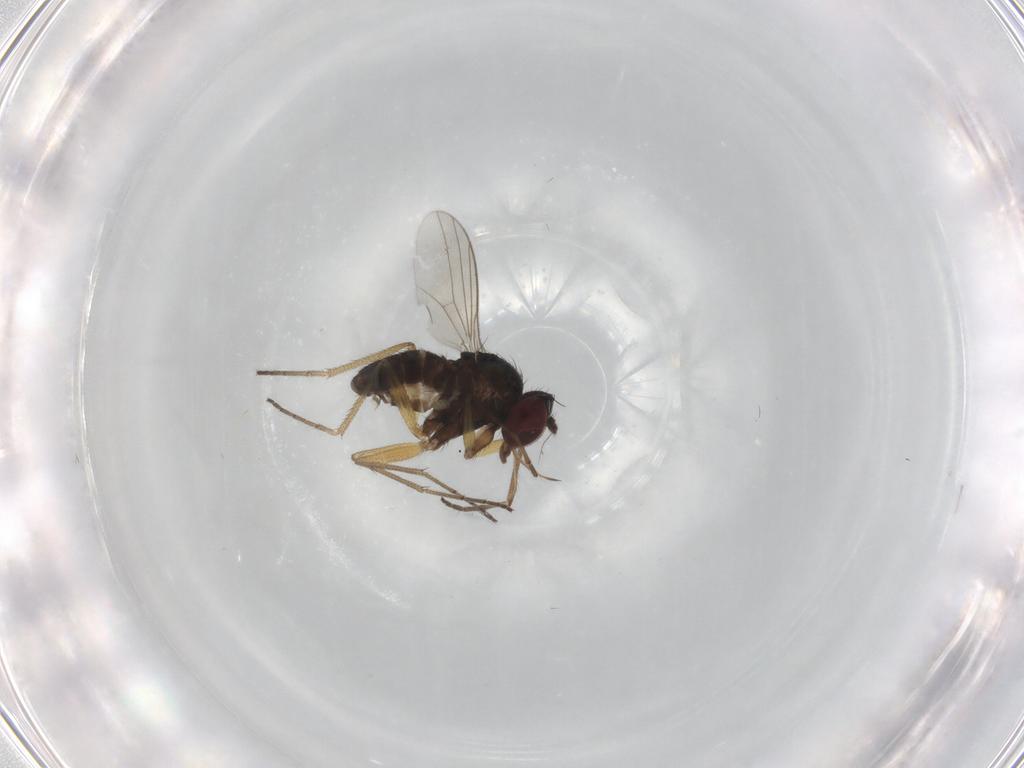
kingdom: Animalia
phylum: Arthropoda
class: Insecta
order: Diptera
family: Dolichopodidae
